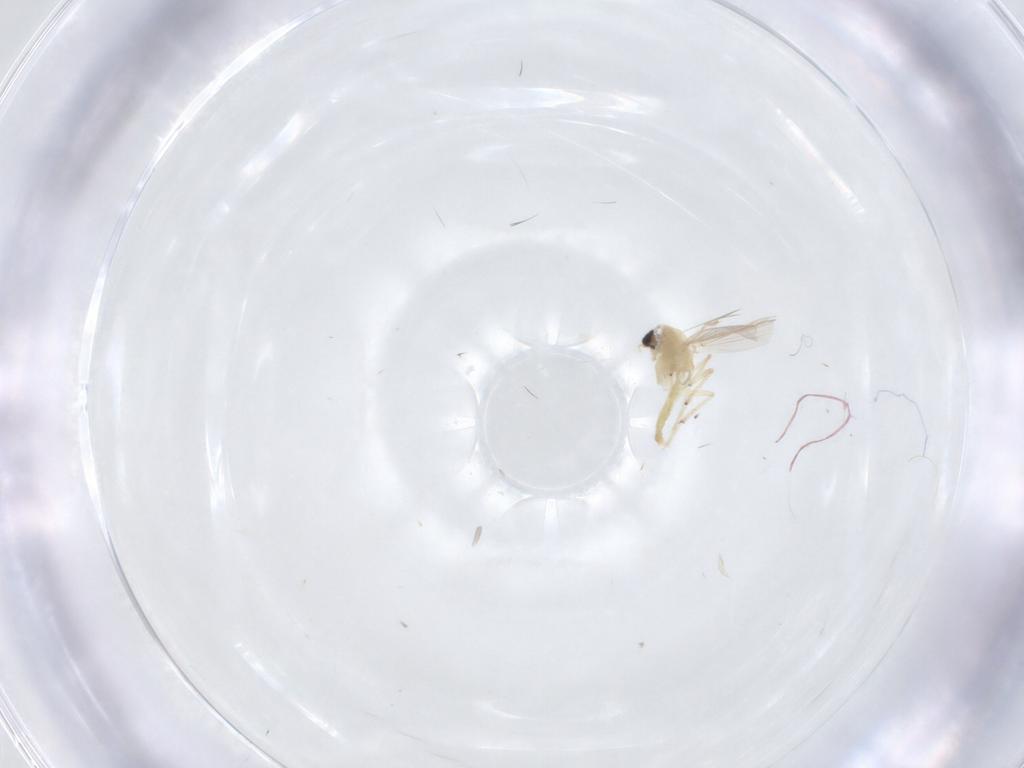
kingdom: Animalia
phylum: Arthropoda
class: Insecta
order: Diptera
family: Chironomidae
